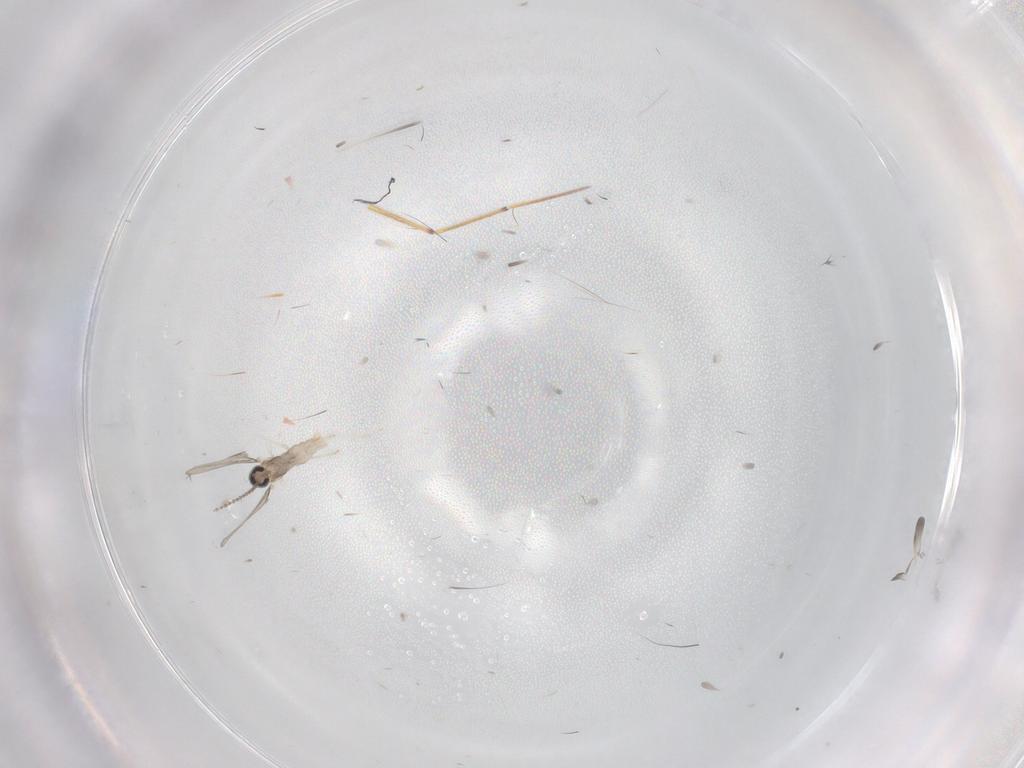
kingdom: Animalia
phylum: Arthropoda
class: Insecta
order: Diptera
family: Cecidomyiidae
